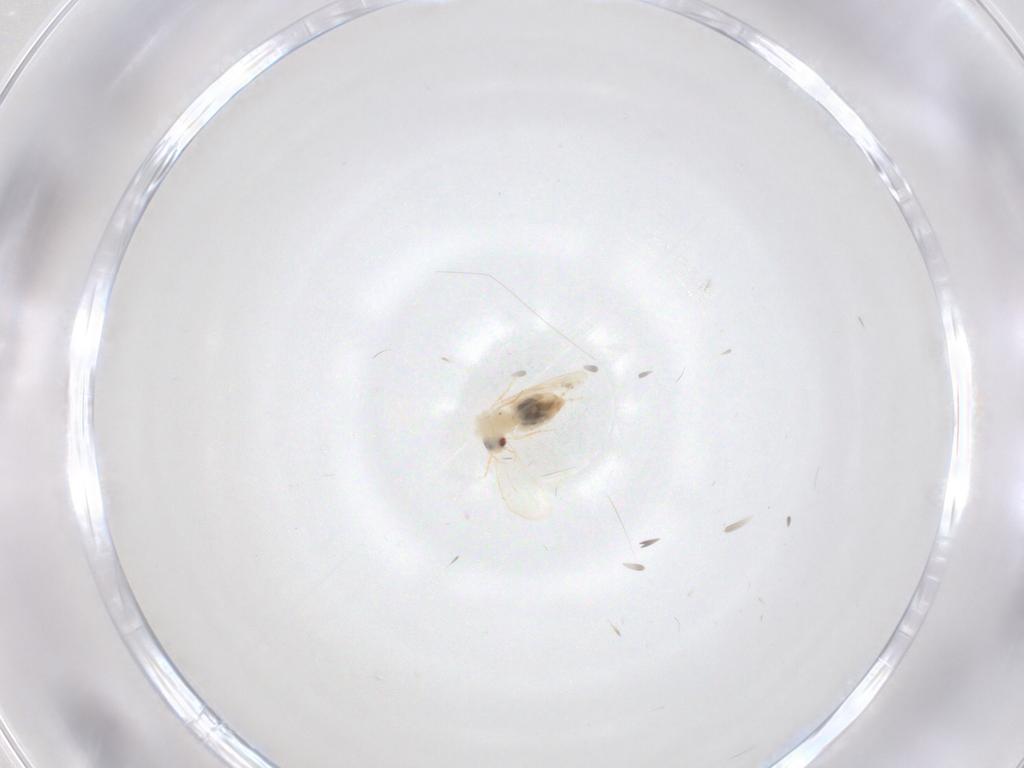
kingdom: Animalia
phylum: Arthropoda
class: Insecta
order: Hemiptera
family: Aleyrodidae
